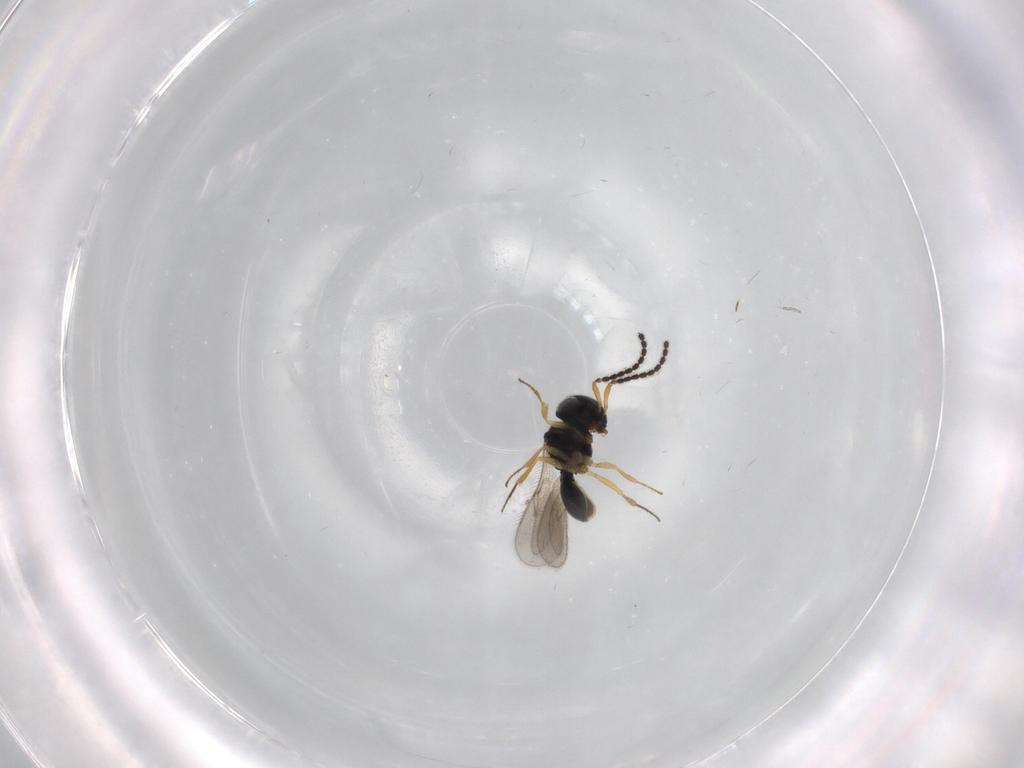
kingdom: Animalia
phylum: Arthropoda
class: Insecta
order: Hymenoptera
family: Scelionidae
